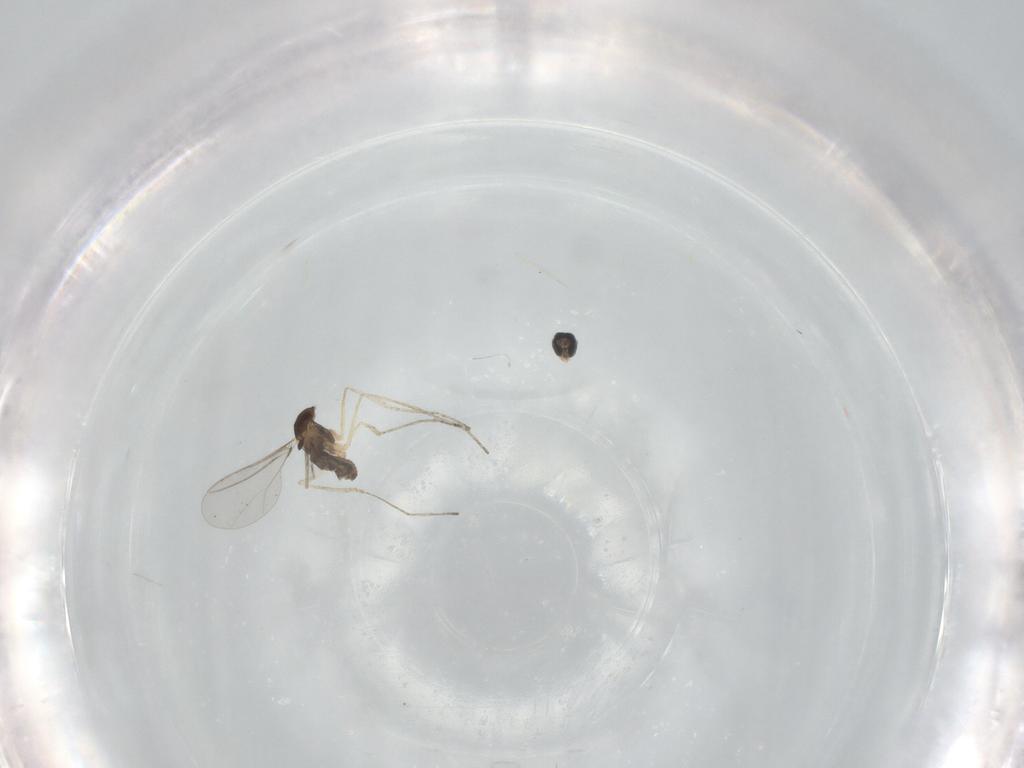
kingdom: Animalia
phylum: Arthropoda
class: Insecta
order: Diptera
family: Cecidomyiidae
